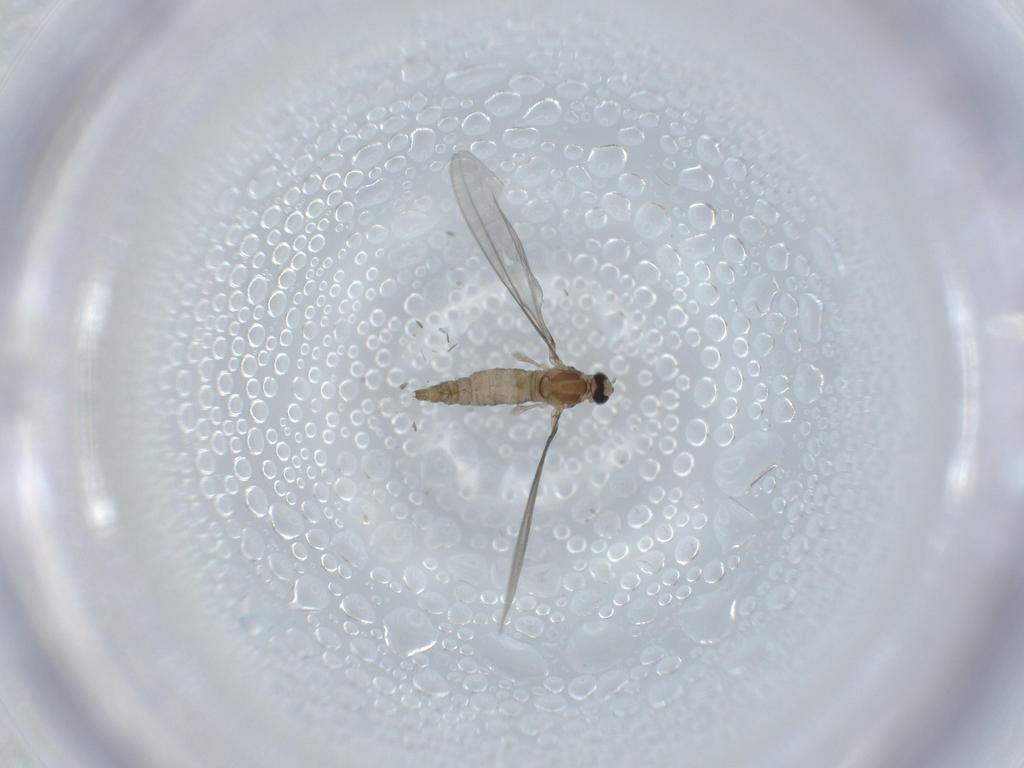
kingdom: Animalia
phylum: Arthropoda
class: Insecta
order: Diptera
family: Cecidomyiidae
